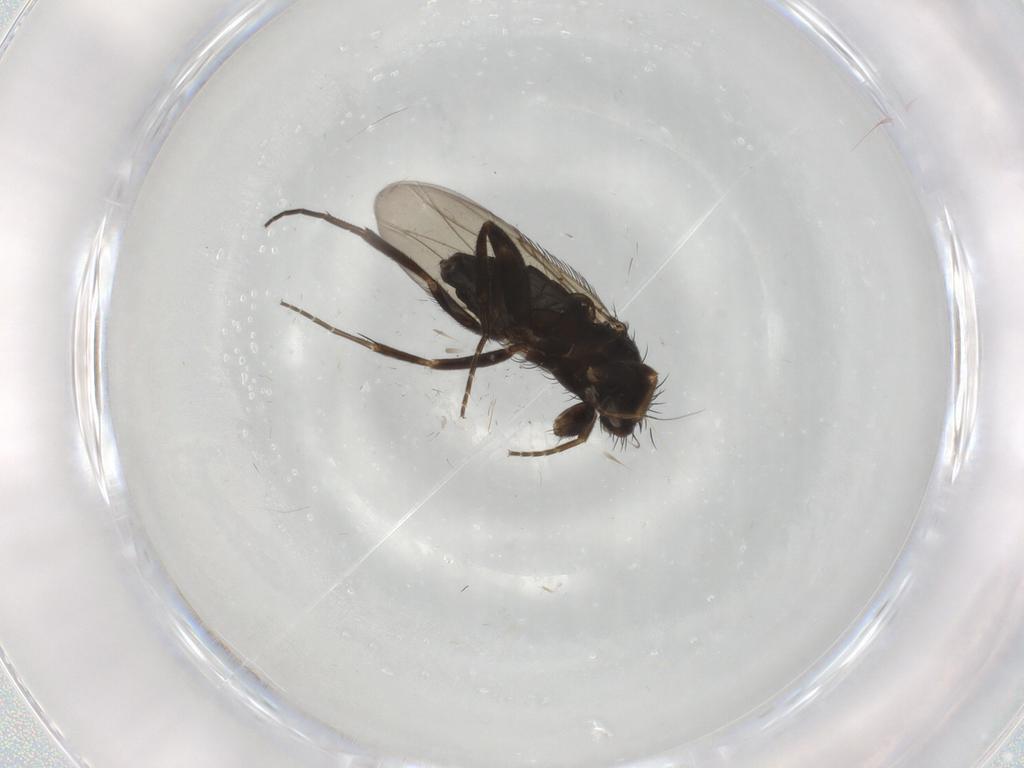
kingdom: Animalia
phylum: Arthropoda
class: Insecta
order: Diptera
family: Phoridae
